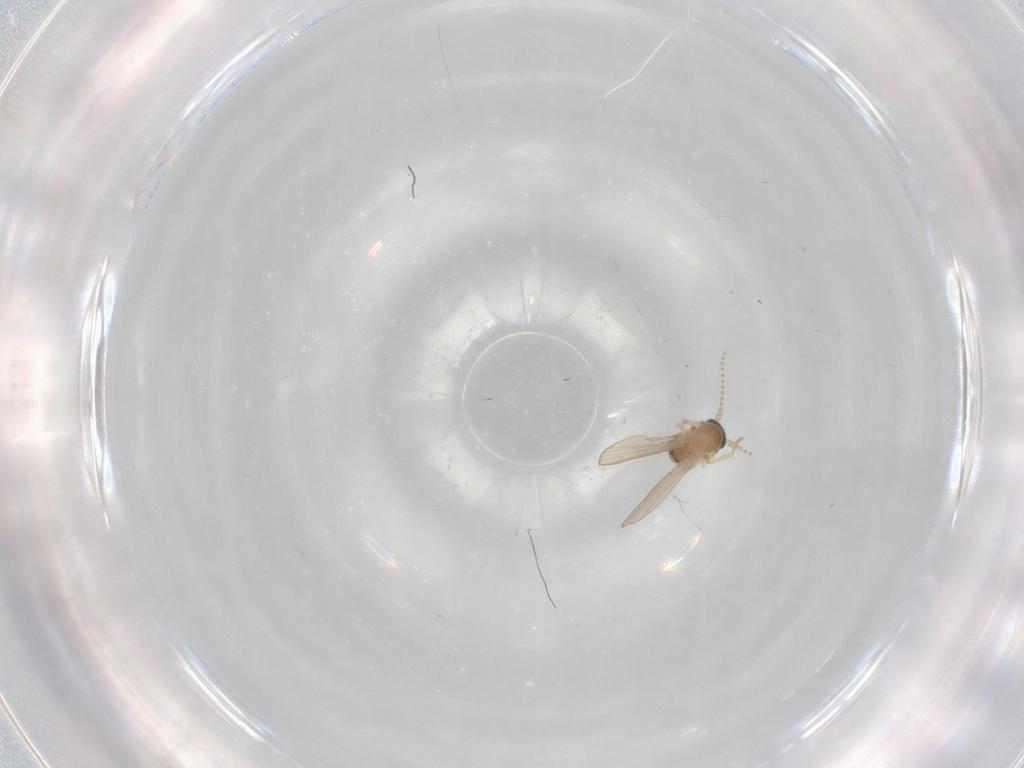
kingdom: Animalia
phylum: Arthropoda
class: Insecta
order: Diptera
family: Psychodidae
